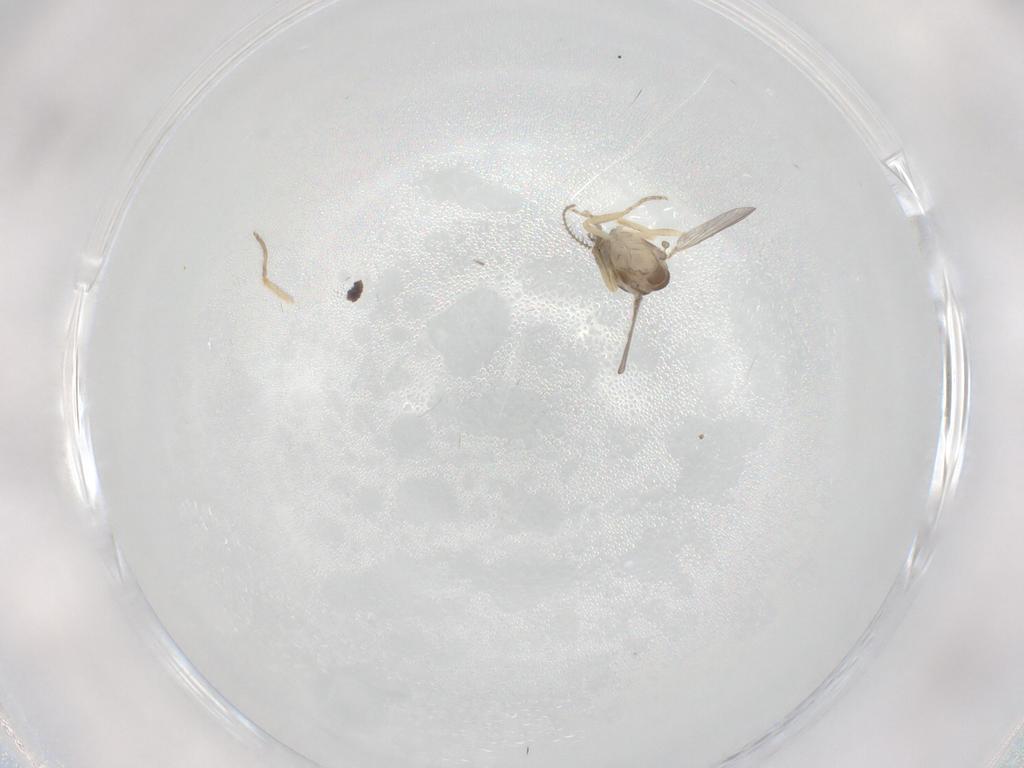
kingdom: Animalia
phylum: Arthropoda
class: Insecta
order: Diptera
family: Ceratopogonidae
